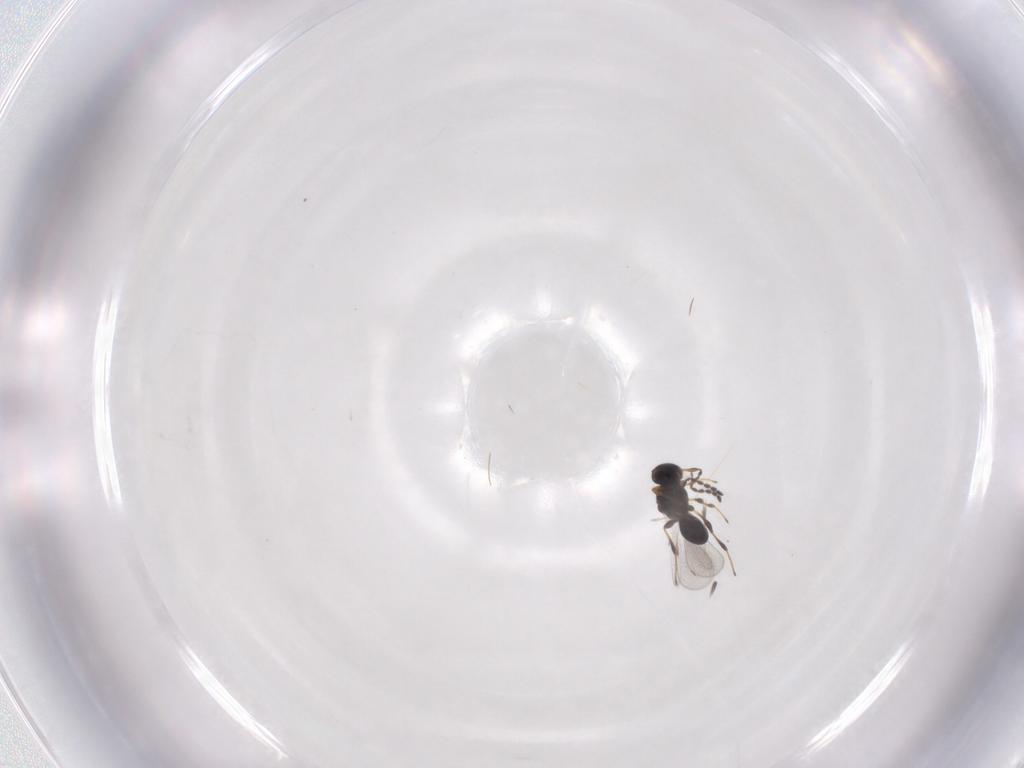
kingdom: Animalia
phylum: Arthropoda
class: Insecta
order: Hymenoptera
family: Platygastridae
